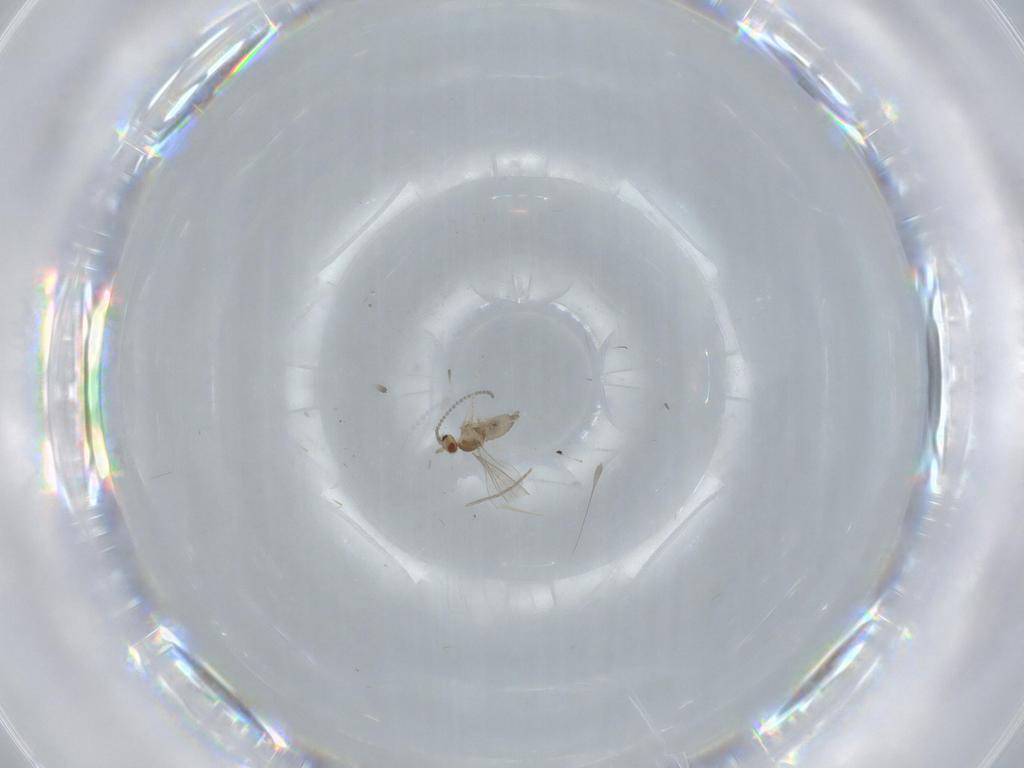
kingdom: Animalia
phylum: Arthropoda
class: Insecta
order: Diptera
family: Cecidomyiidae
